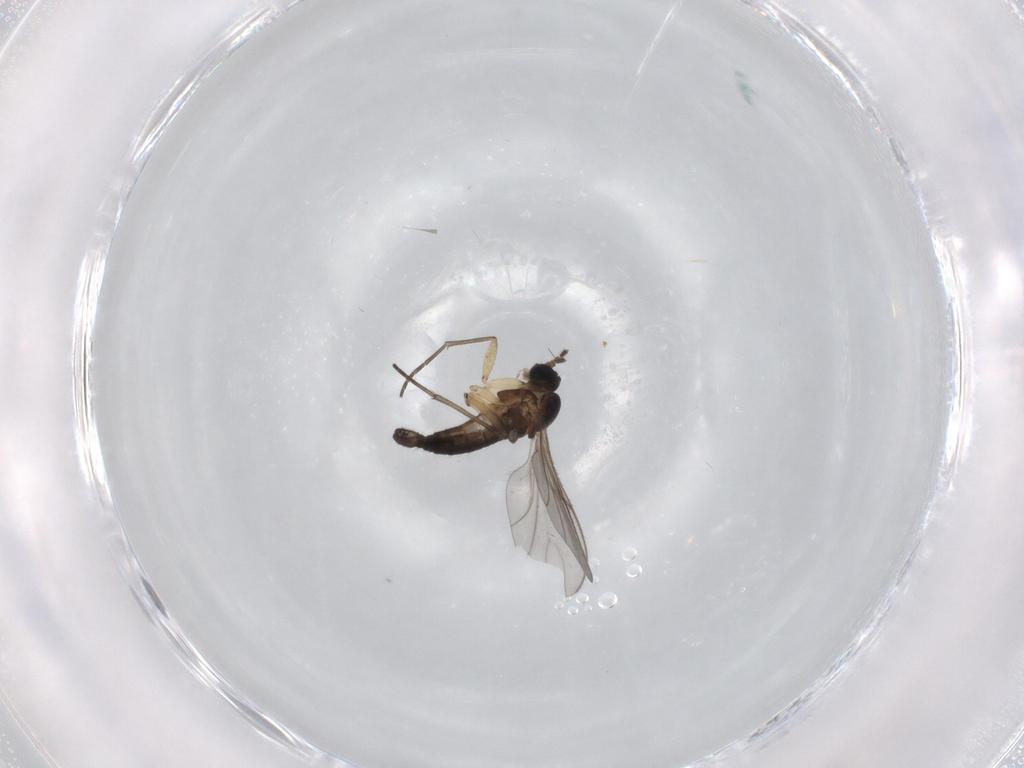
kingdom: Animalia
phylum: Arthropoda
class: Insecta
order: Diptera
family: Sciaridae
